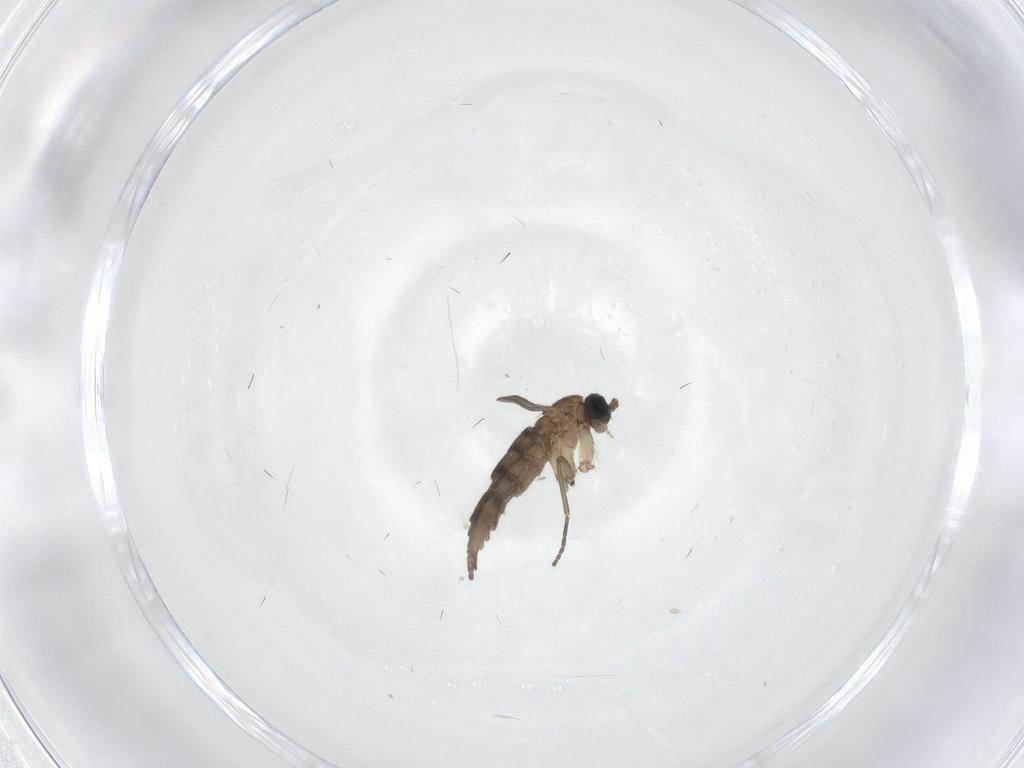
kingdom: Animalia
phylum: Arthropoda
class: Insecta
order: Diptera
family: Sciaridae
